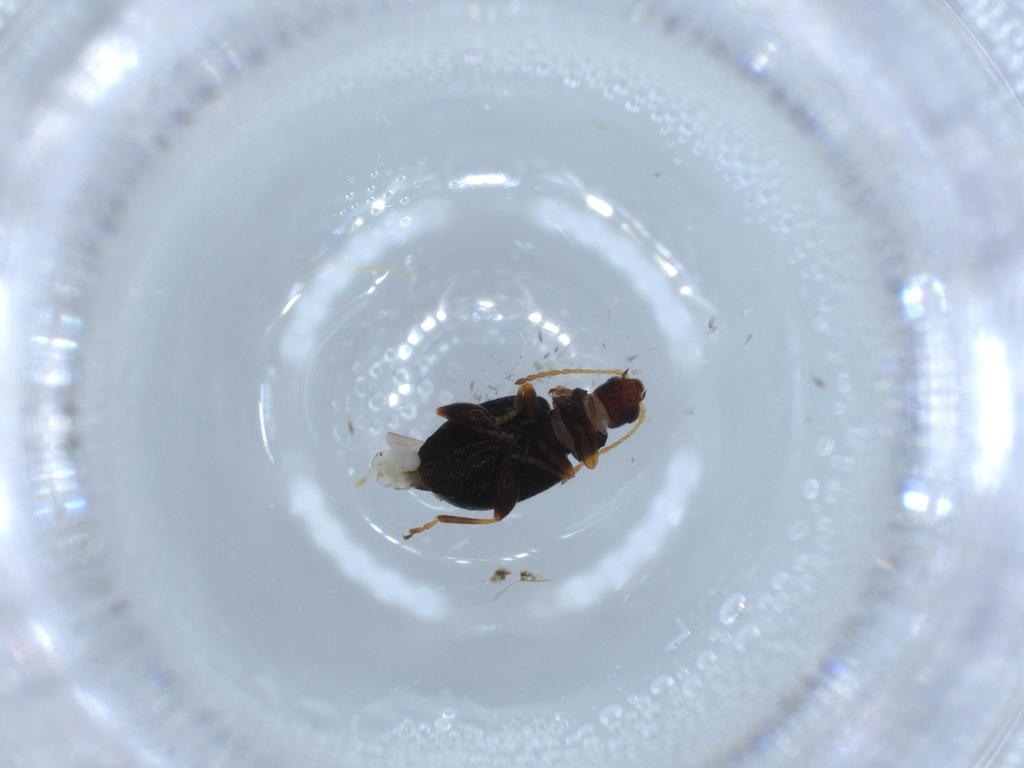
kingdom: Animalia
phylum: Arthropoda
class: Insecta
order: Coleoptera
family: Chrysomelidae
